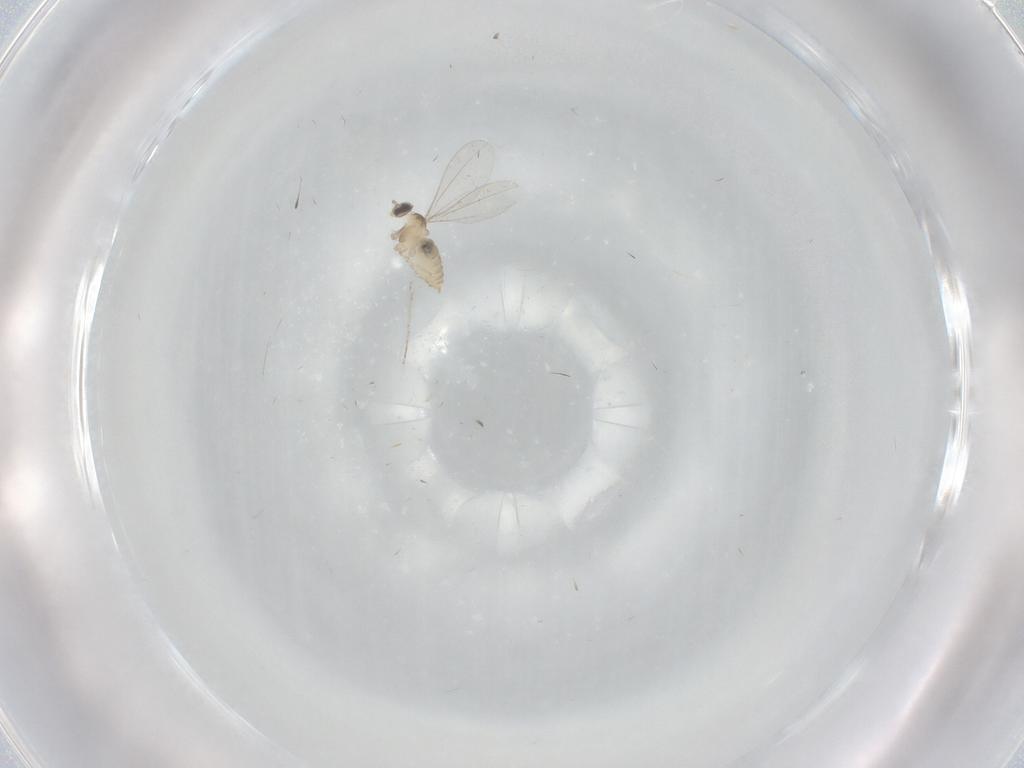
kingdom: Animalia
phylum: Arthropoda
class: Insecta
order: Diptera
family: Cecidomyiidae
